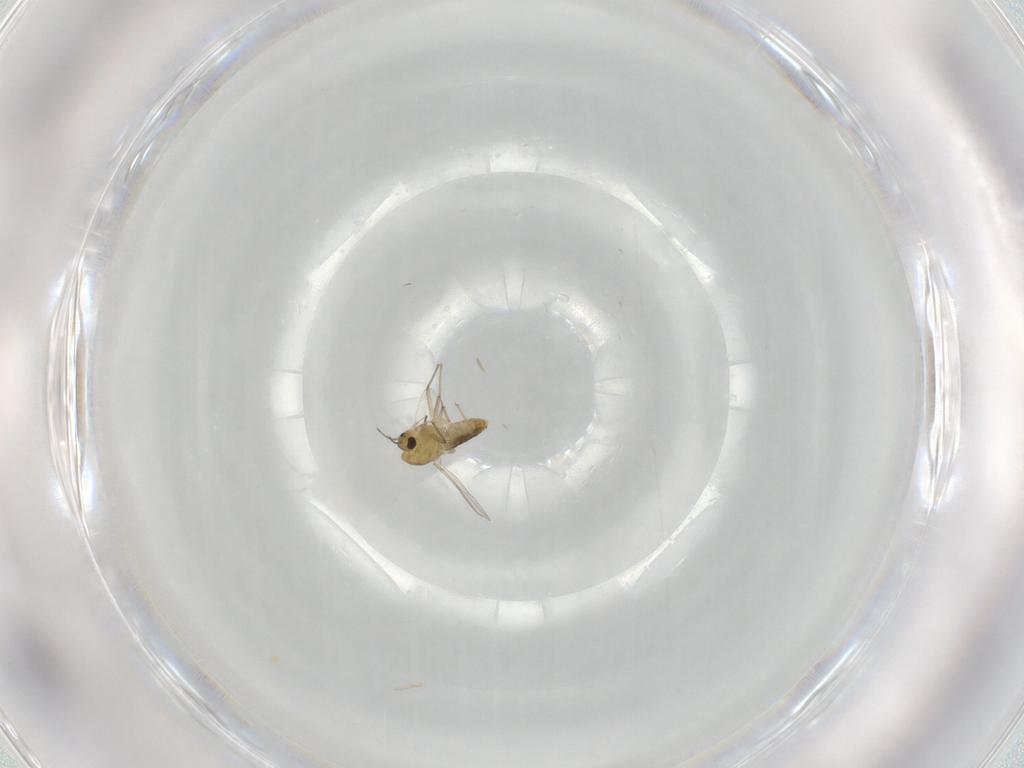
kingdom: Animalia
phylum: Arthropoda
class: Insecta
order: Diptera
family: Chironomidae
